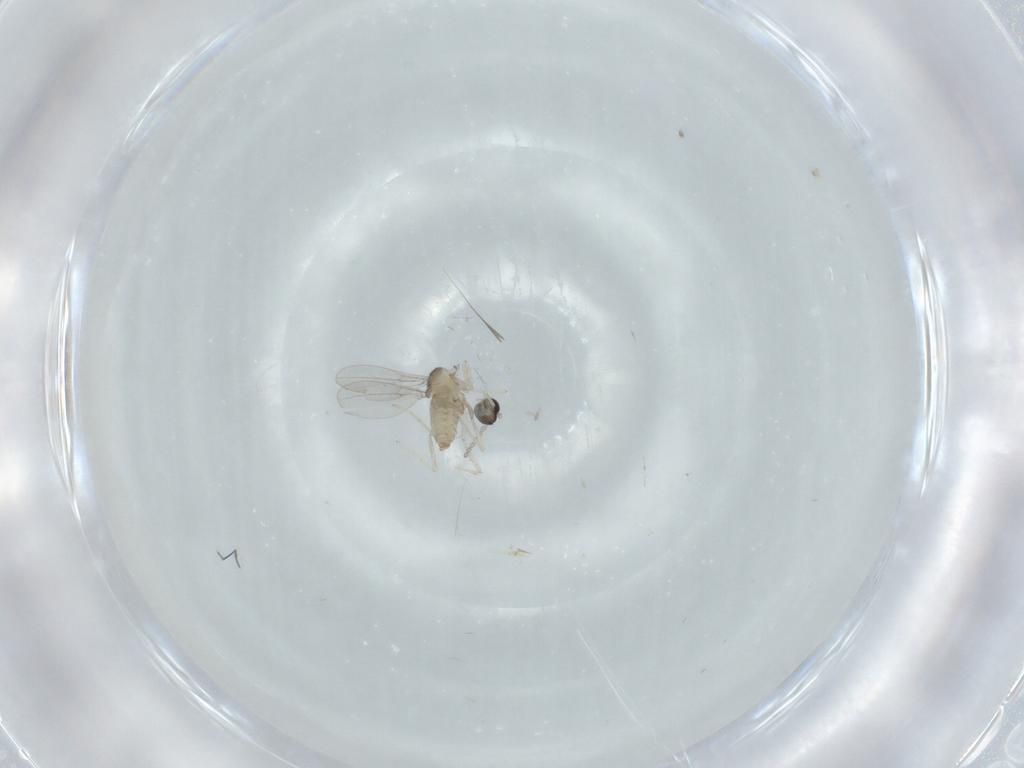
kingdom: Animalia
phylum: Arthropoda
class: Insecta
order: Diptera
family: Cecidomyiidae
